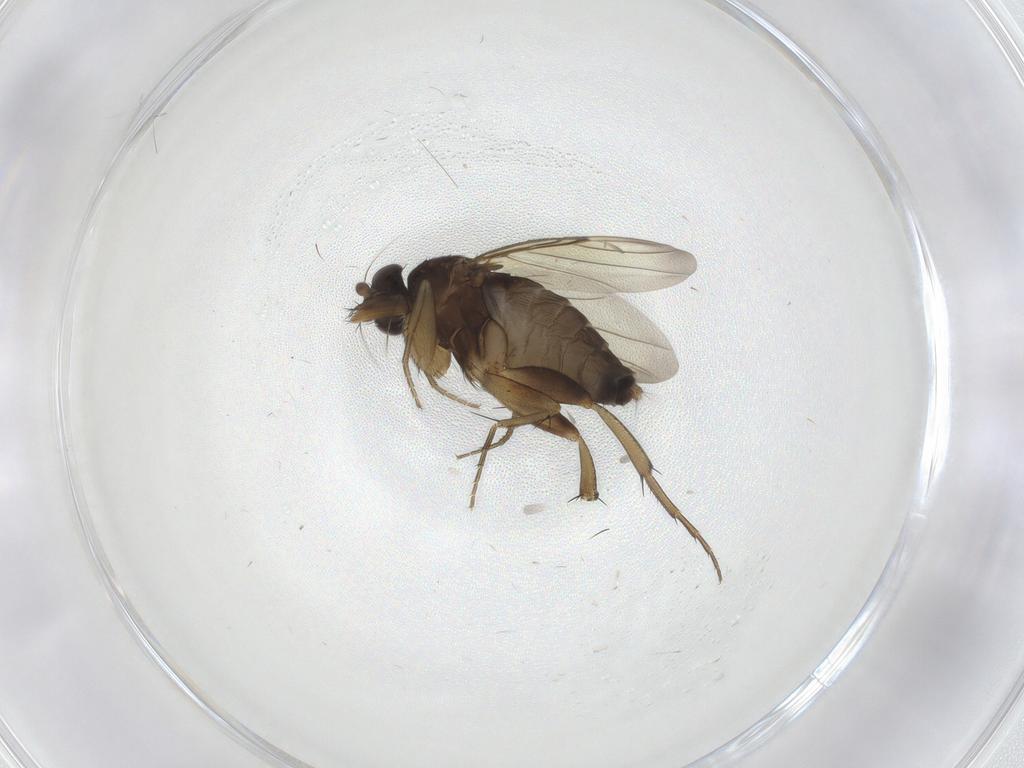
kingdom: Animalia
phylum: Arthropoda
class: Insecta
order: Diptera
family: Phoridae
